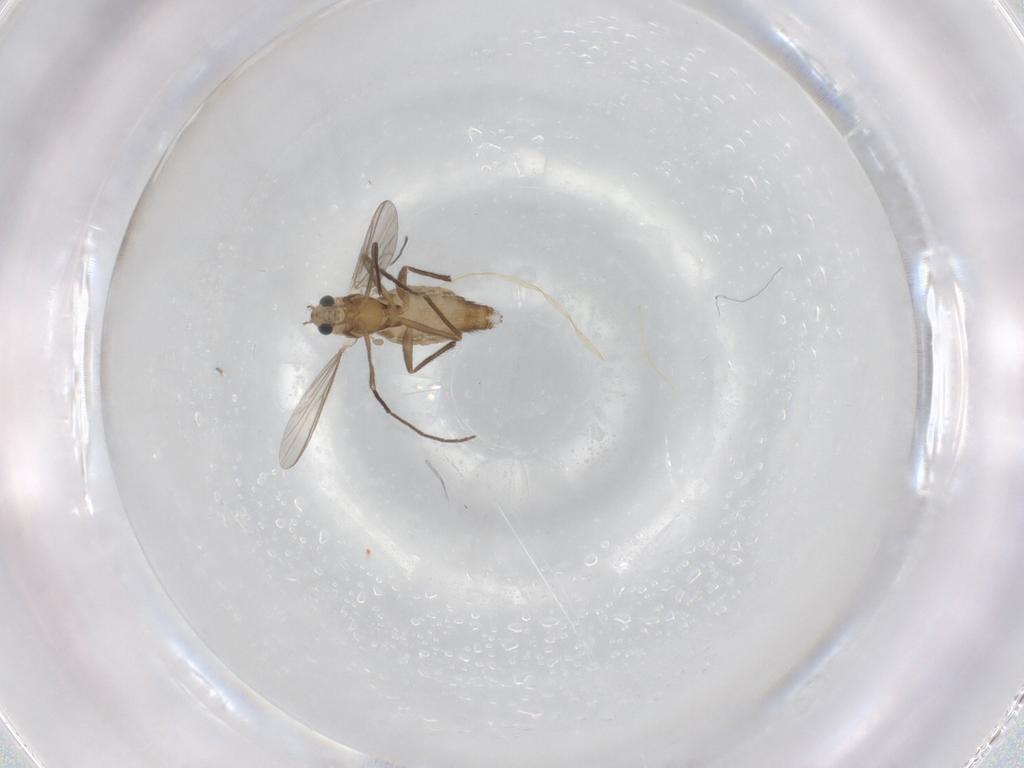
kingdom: Animalia
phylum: Arthropoda
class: Insecta
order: Diptera
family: Chironomidae
